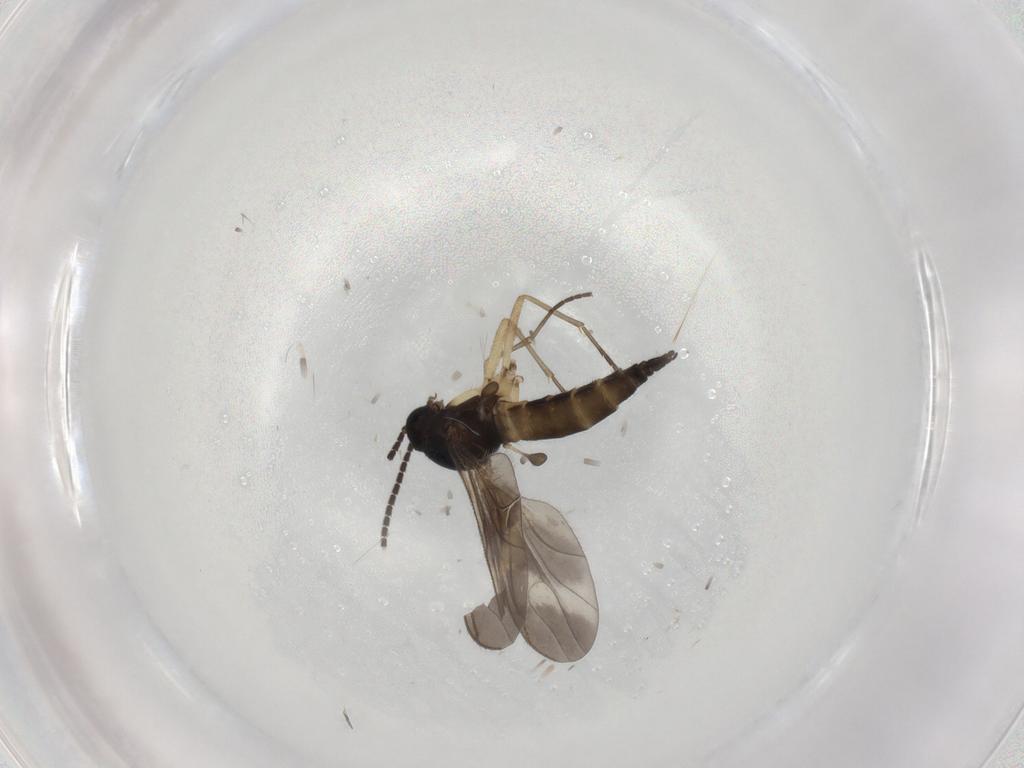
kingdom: Animalia
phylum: Arthropoda
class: Insecta
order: Diptera
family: Sciaridae
